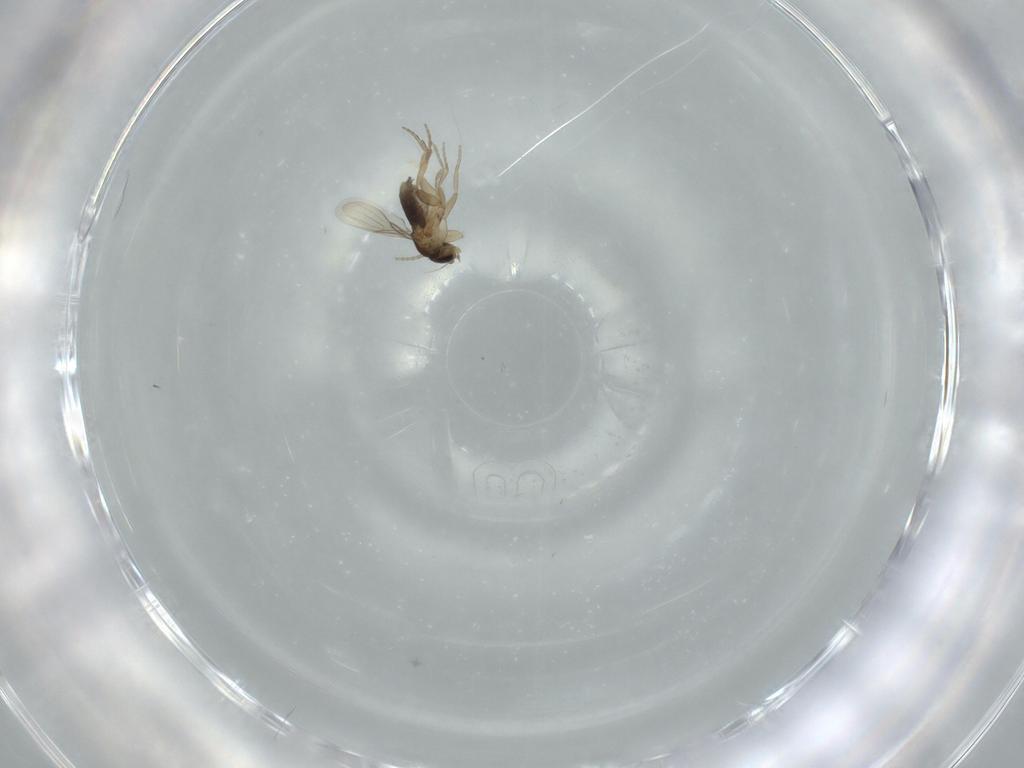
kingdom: Animalia
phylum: Arthropoda
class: Insecta
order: Diptera
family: Phoridae
